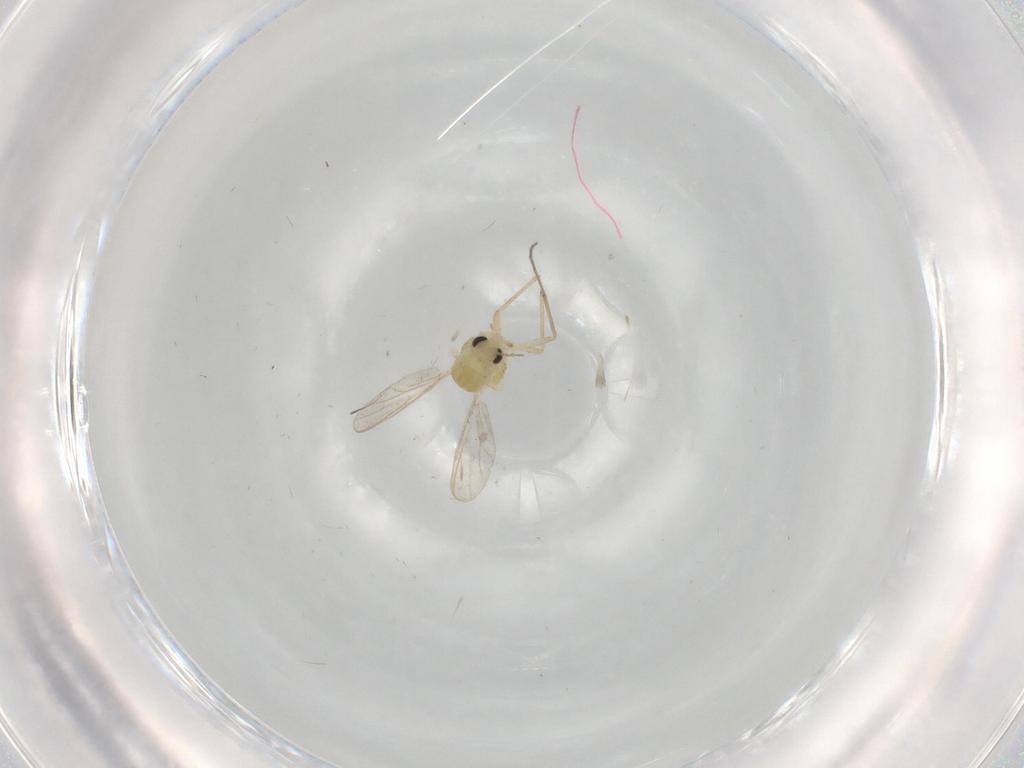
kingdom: Animalia
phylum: Arthropoda
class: Insecta
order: Diptera
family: Chironomidae
